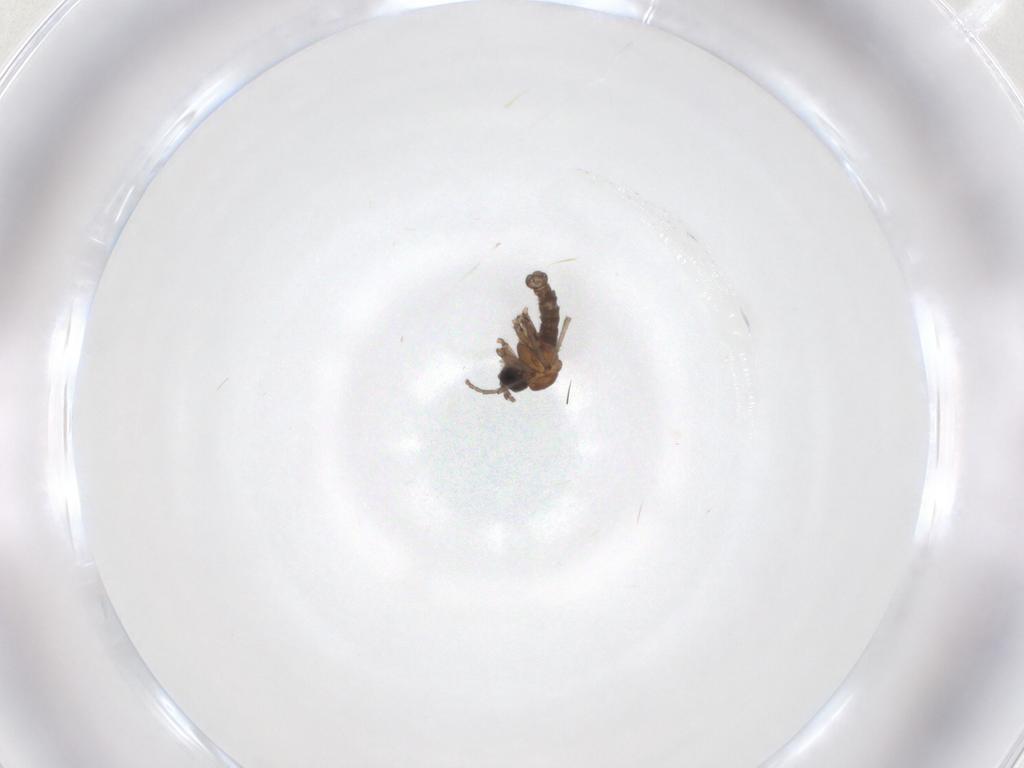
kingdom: Animalia
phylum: Arthropoda
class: Insecta
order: Diptera
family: Sciaridae
